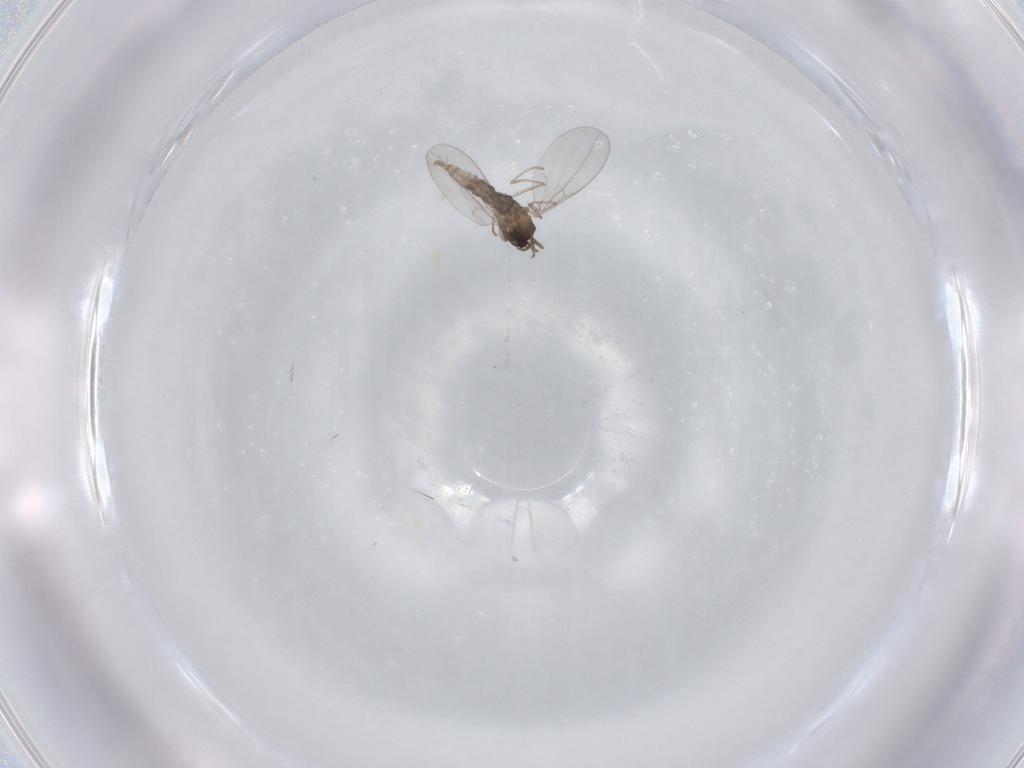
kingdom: Animalia
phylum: Arthropoda
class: Insecta
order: Diptera
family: Cecidomyiidae
